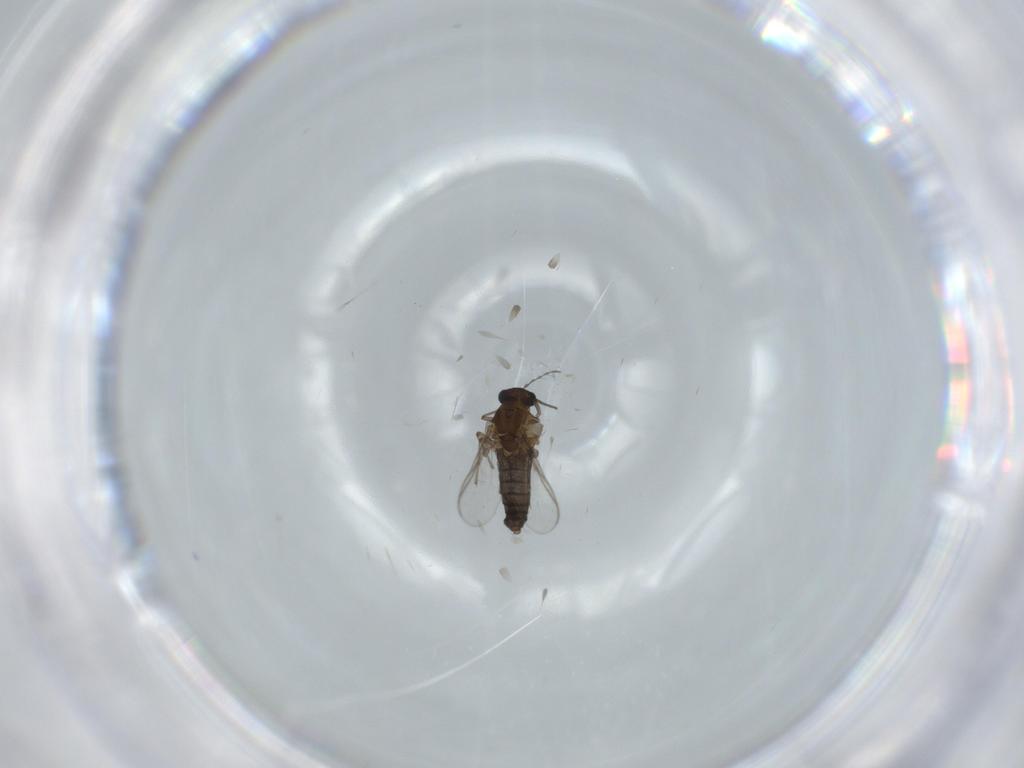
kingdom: Animalia
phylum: Arthropoda
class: Insecta
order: Diptera
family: Chironomidae
